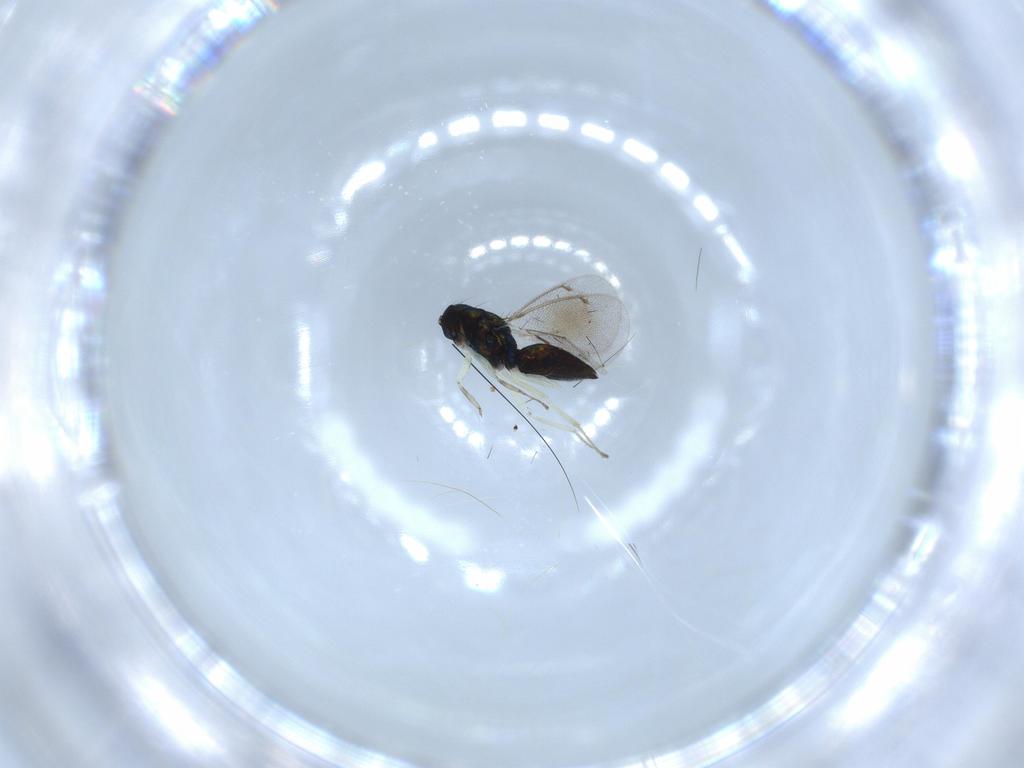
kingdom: Animalia
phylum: Arthropoda
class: Insecta
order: Hymenoptera
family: Eulophidae
